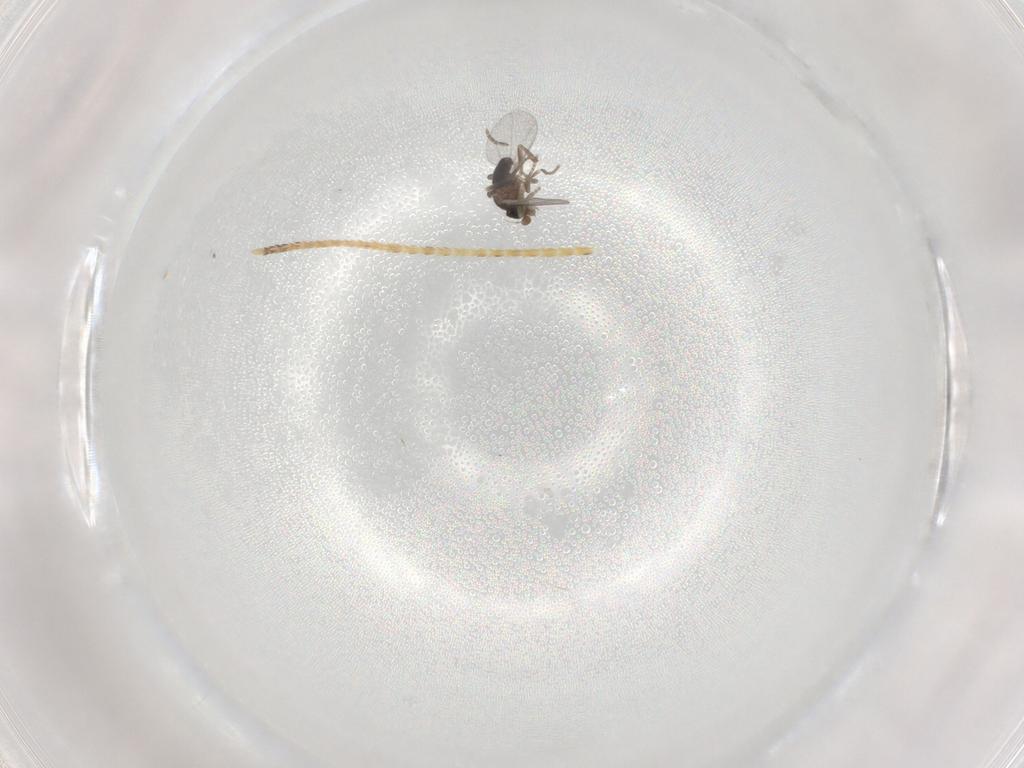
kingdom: Animalia
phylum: Arthropoda
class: Insecta
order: Diptera
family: Phoridae
